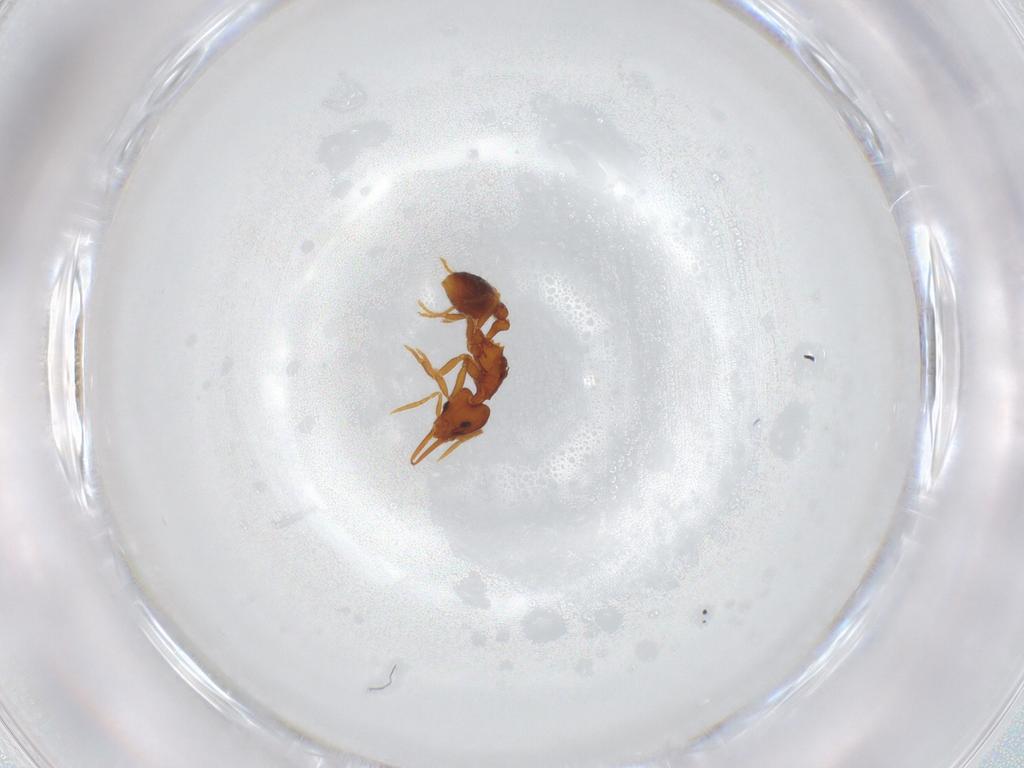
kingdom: Animalia
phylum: Arthropoda
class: Insecta
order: Hymenoptera
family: Formicidae
